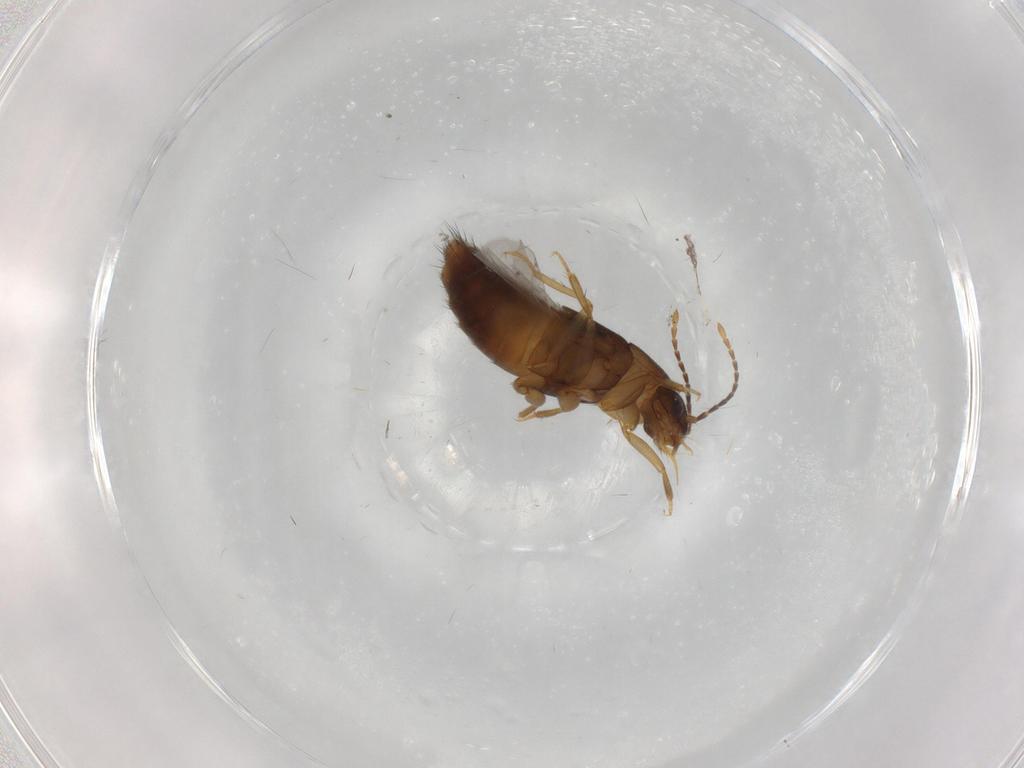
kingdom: Animalia
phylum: Arthropoda
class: Insecta
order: Coleoptera
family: Staphylinidae
